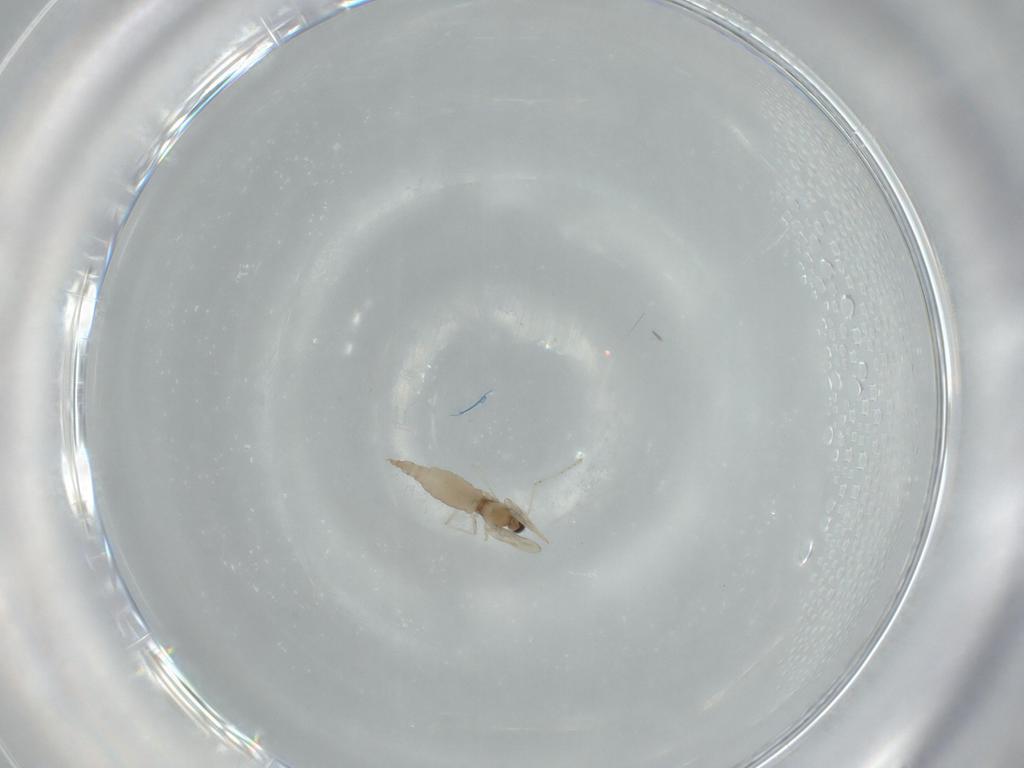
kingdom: Animalia
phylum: Arthropoda
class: Insecta
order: Diptera
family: Cecidomyiidae
